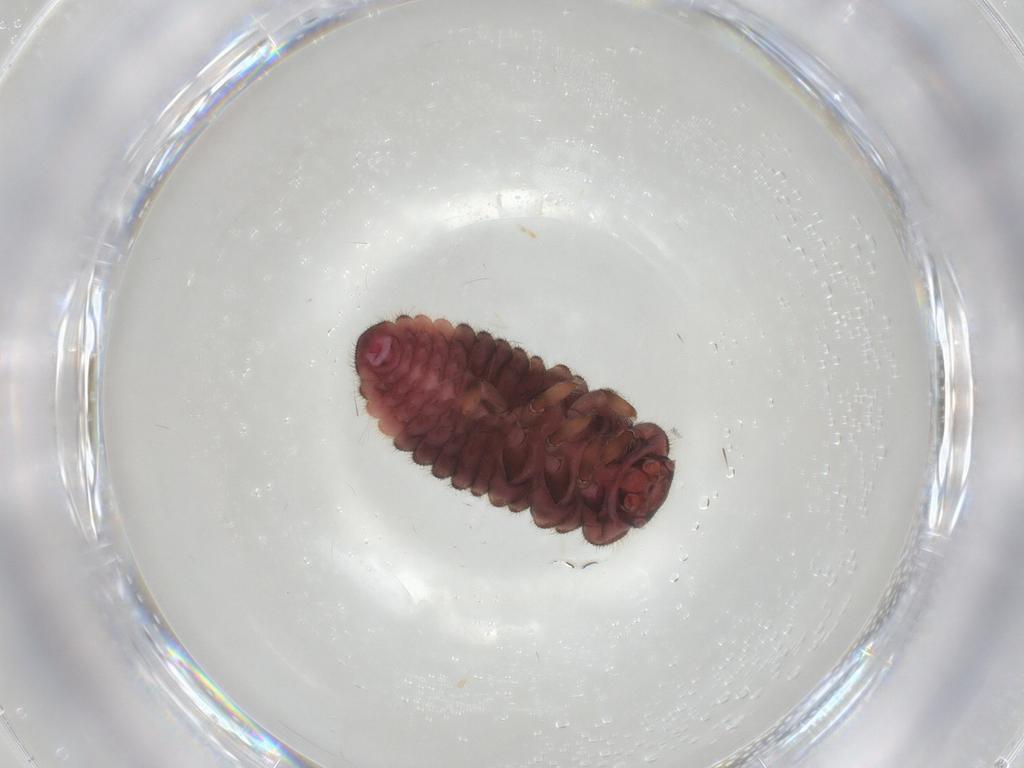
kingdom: Animalia
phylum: Arthropoda
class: Insecta
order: Coleoptera
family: Coccinellidae
